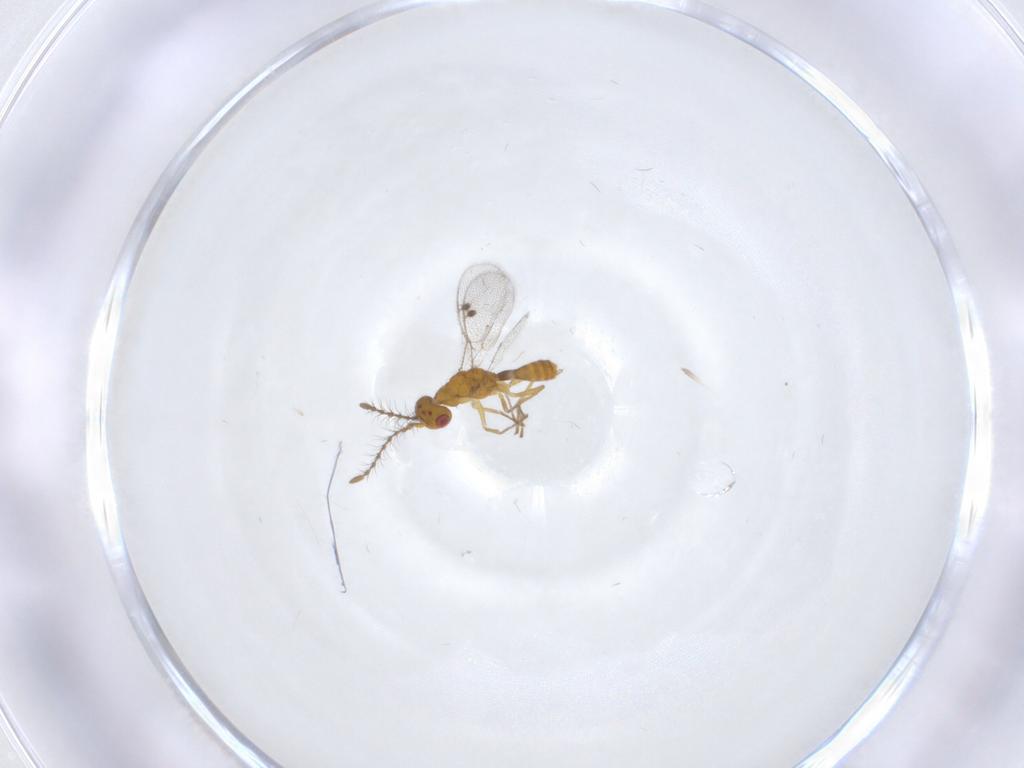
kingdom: Animalia
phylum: Arthropoda
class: Insecta
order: Hymenoptera
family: Megastigmidae
